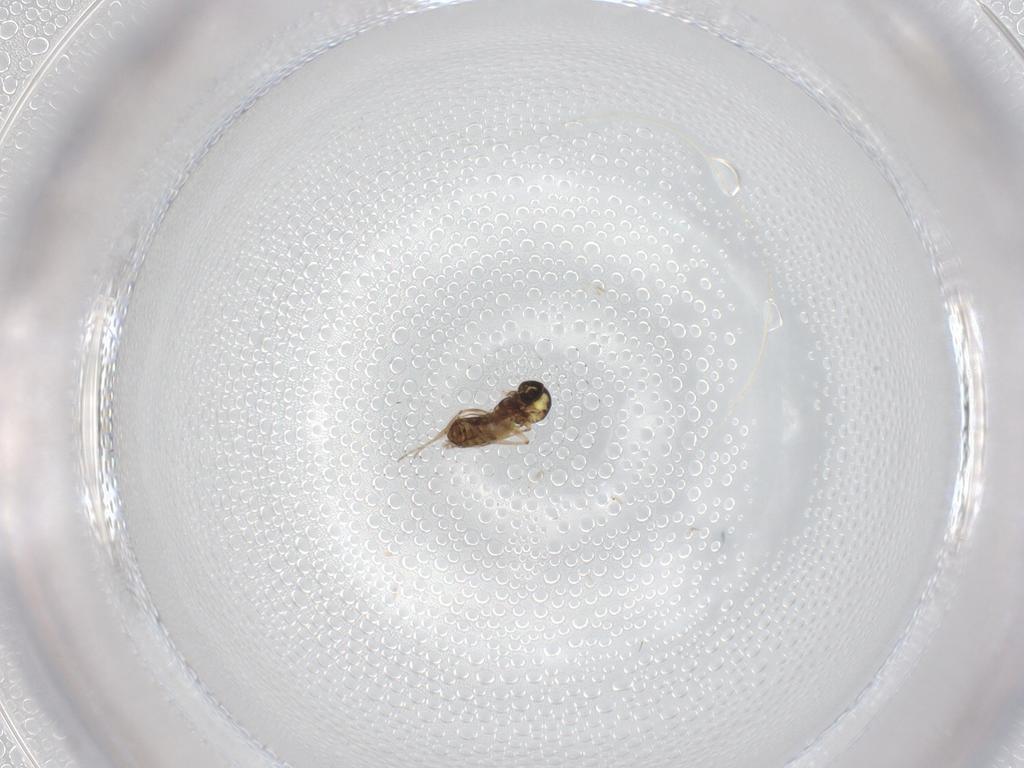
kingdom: Animalia
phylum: Arthropoda
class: Insecta
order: Diptera
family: Ceratopogonidae
